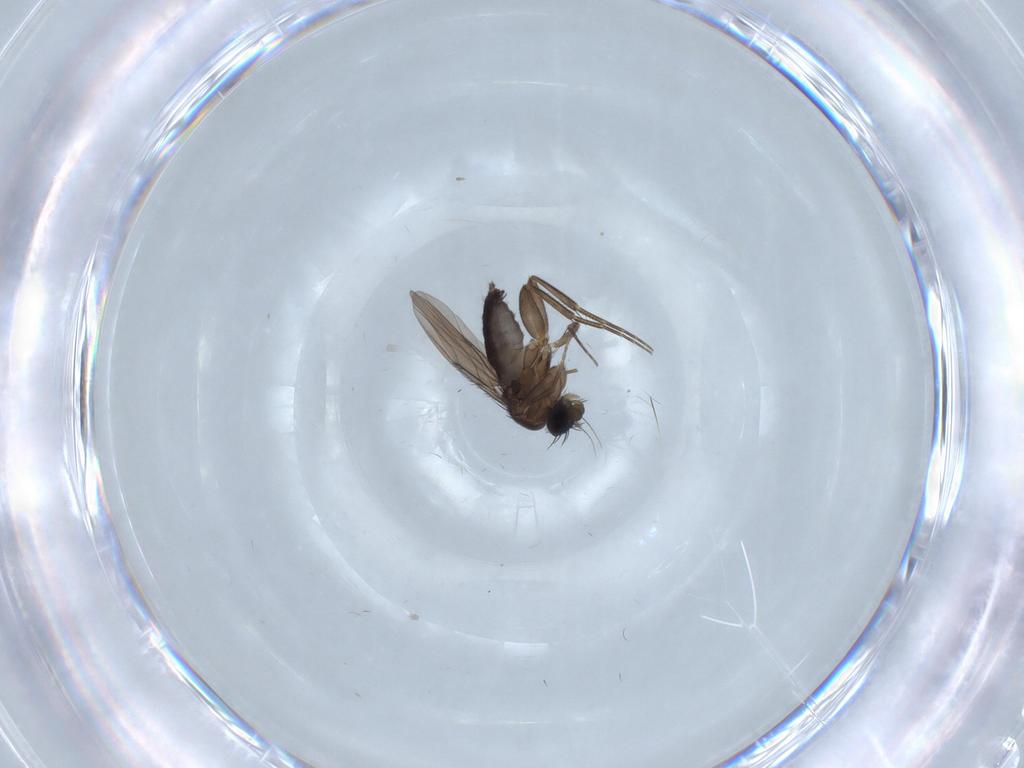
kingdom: Animalia
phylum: Arthropoda
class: Insecta
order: Diptera
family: Phoridae
